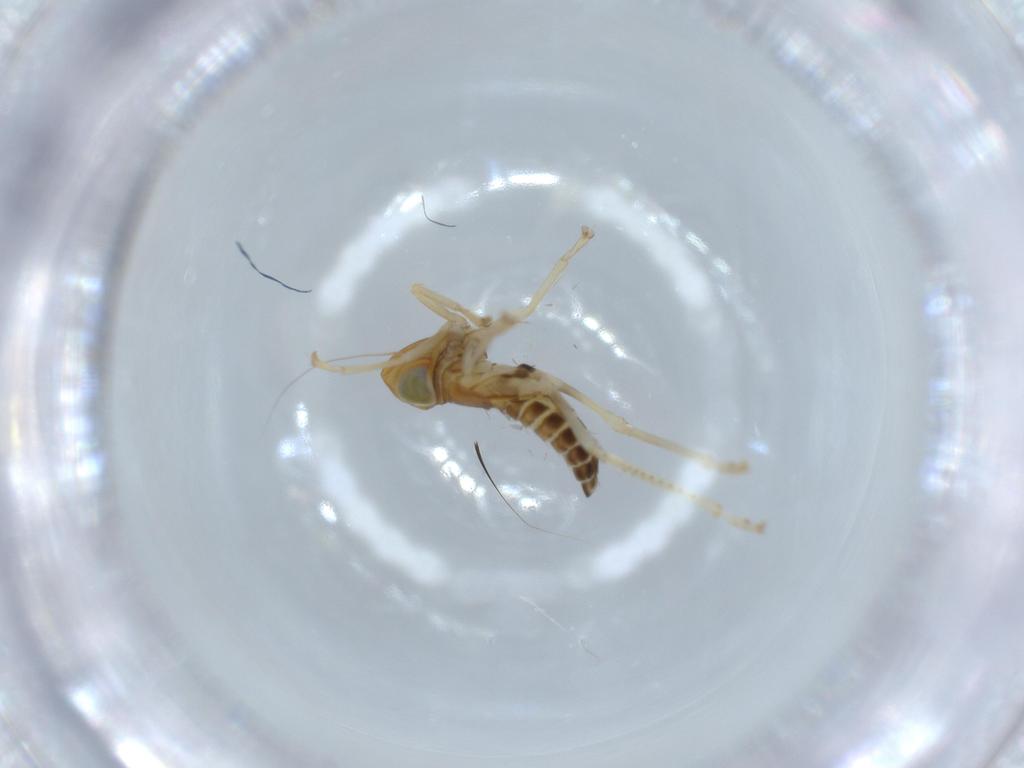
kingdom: Animalia
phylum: Arthropoda
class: Insecta
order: Hemiptera
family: Cicadellidae
